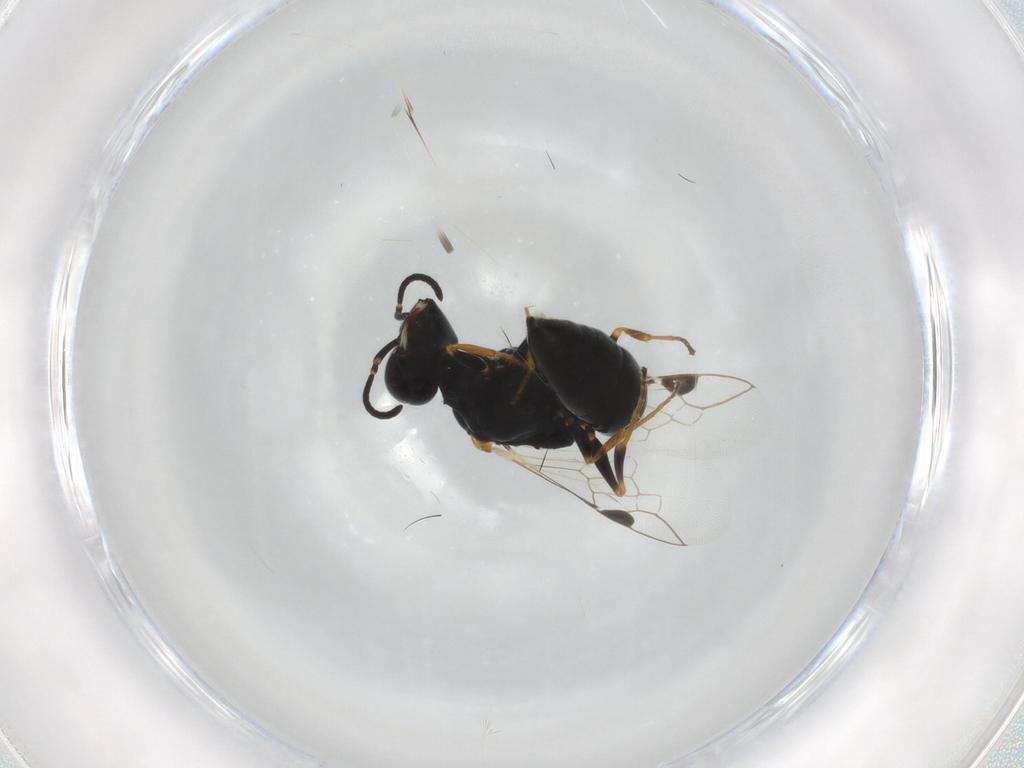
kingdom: Animalia
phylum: Arthropoda
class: Insecta
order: Hymenoptera
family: Crabronidae
